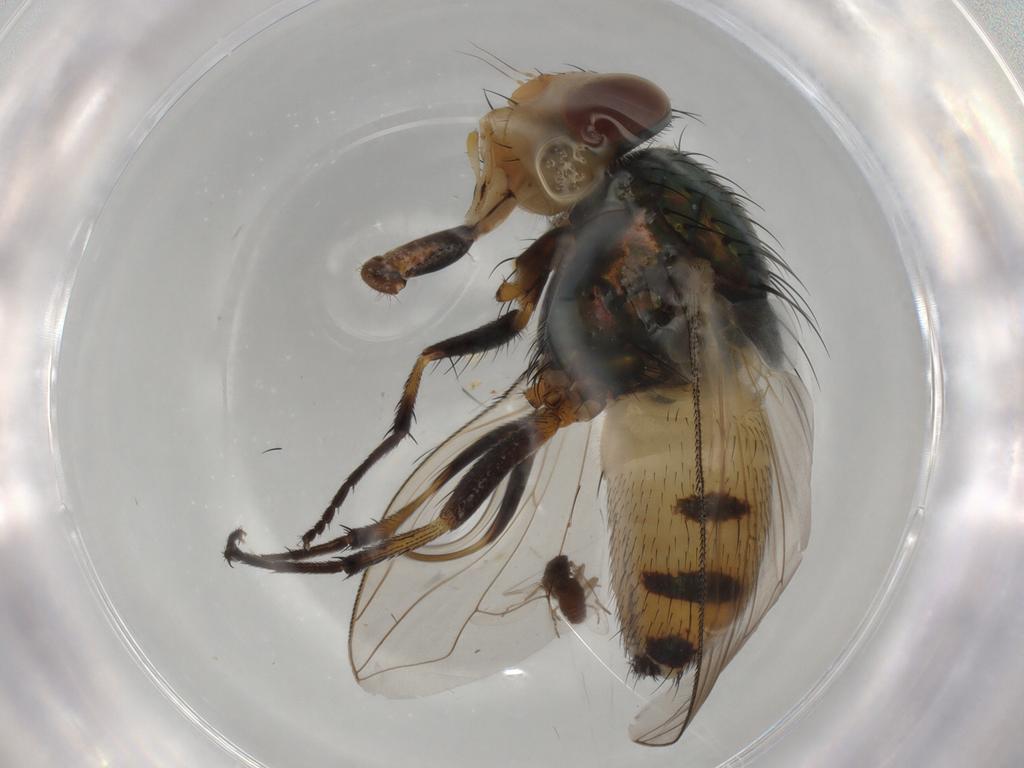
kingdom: Animalia
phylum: Arthropoda
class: Insecta
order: Diptera
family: Calliphoridae
